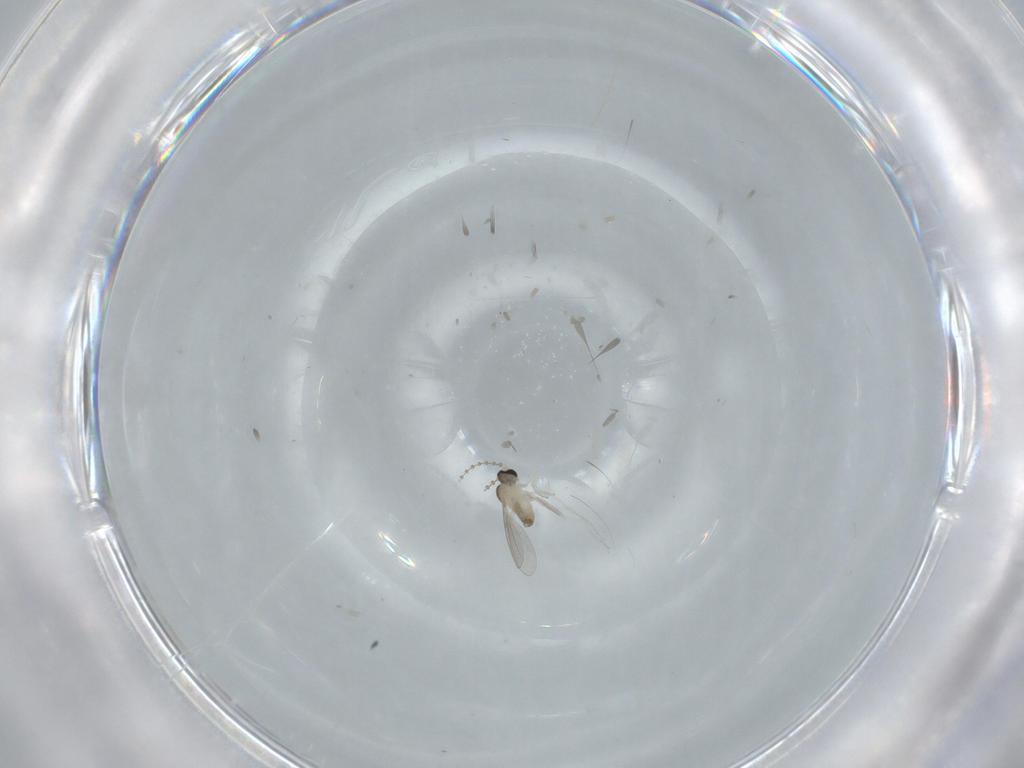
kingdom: Animalia
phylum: Arthropoda
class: Insecta
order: Diptera
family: Cecidomyiidae
